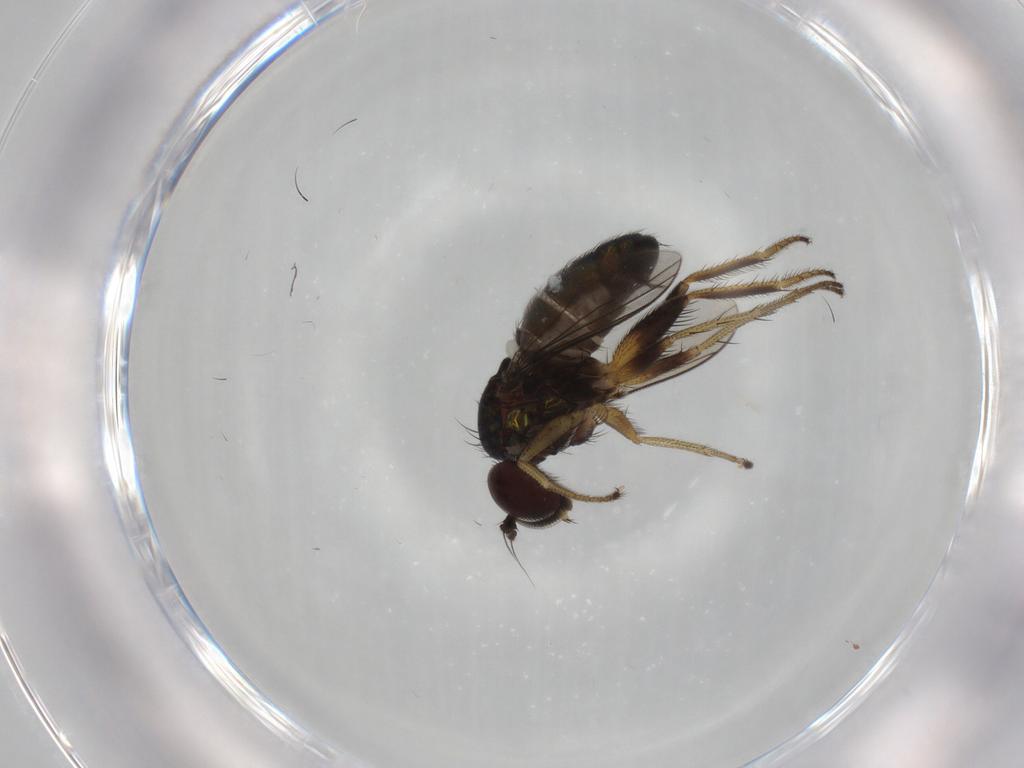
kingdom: Animalia
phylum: Arthropoda
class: Insecta
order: Diptera
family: Dolichopodidae
